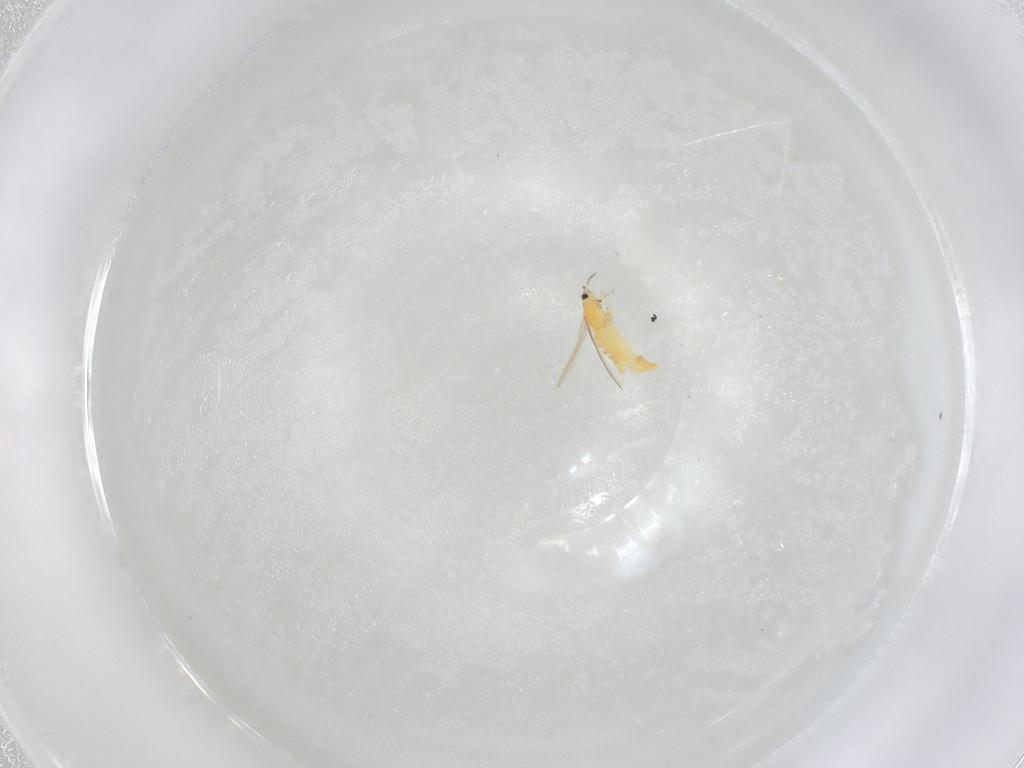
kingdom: Animalia
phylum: Arthropoda
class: Insecta
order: Thysanoptera
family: Thripidae
